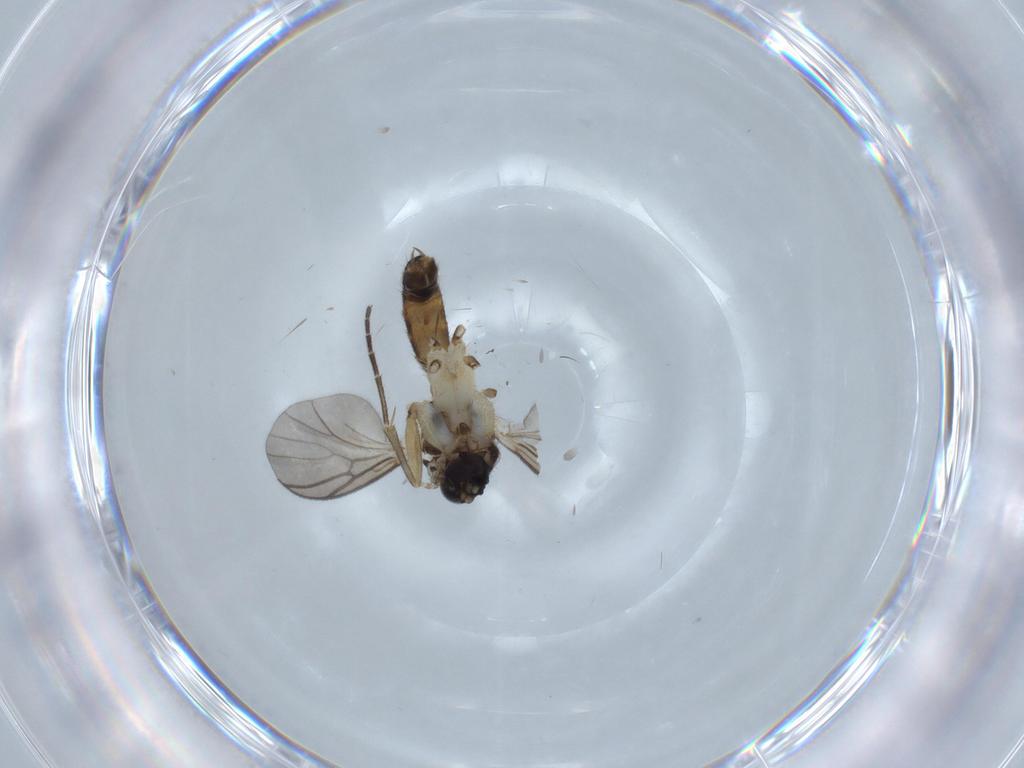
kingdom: Animalia
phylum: Arthropoda
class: Insecta
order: Diptera
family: Mycetophilidae
